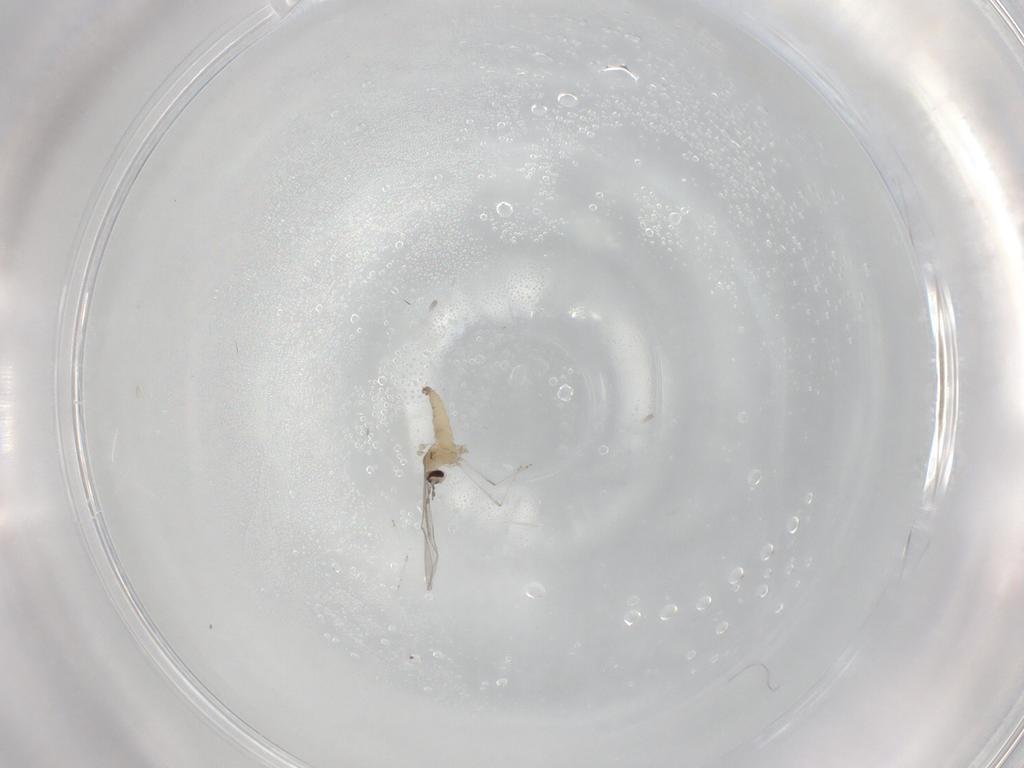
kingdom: Animalia
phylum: Arthropoda
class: Insecta
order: Diptera
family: Cecidomyiidae
